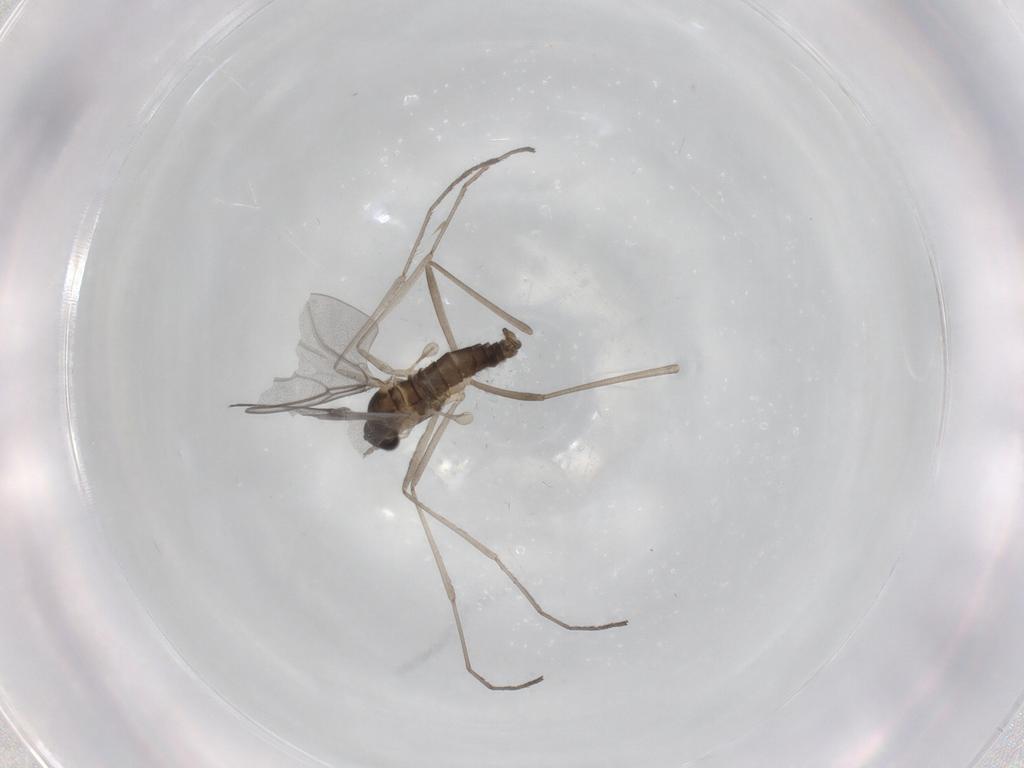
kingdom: Animalia
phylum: Arthropoda
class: Insecta
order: Diptera
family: Cecidomyiidae
